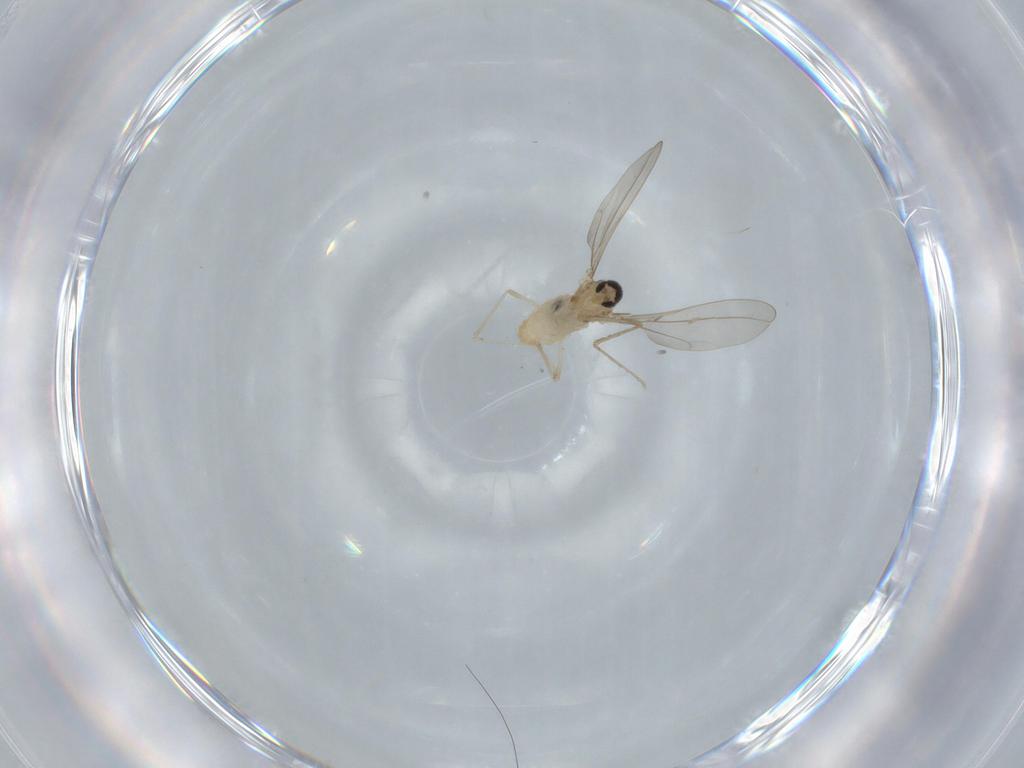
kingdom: Animalia
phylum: Arthropoda
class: Insecta
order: Diptera
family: Cecidomyiidae
